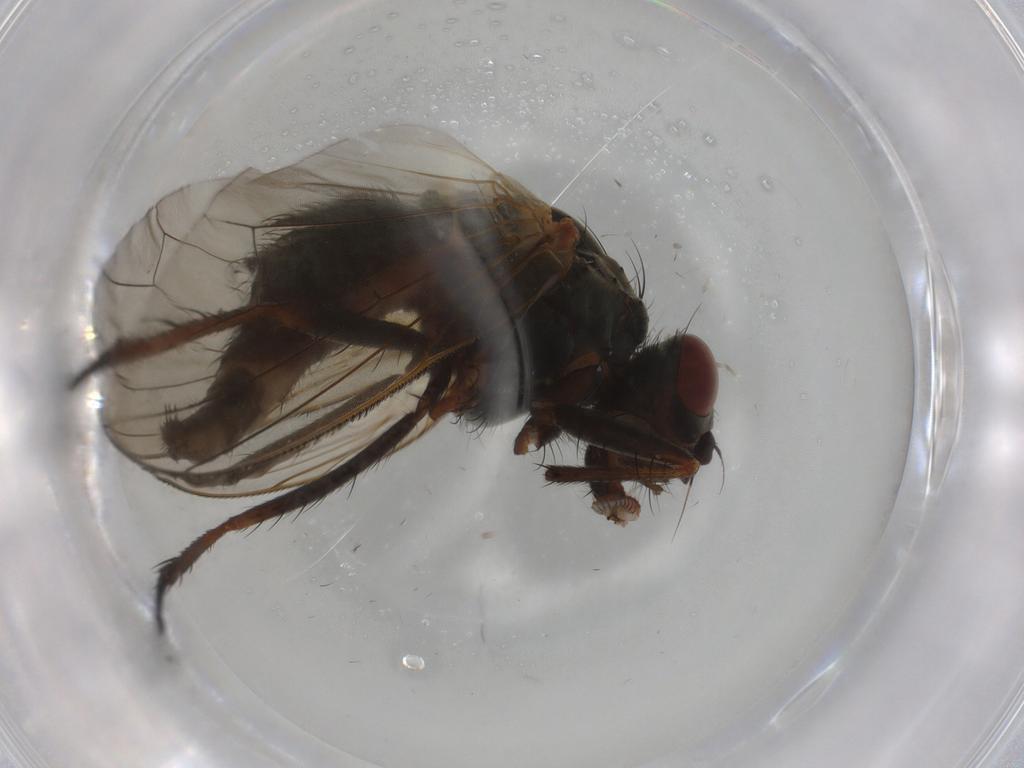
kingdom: Animalia
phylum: Arthropoda
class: Insecta
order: Diptera
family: Anthomyiidae
